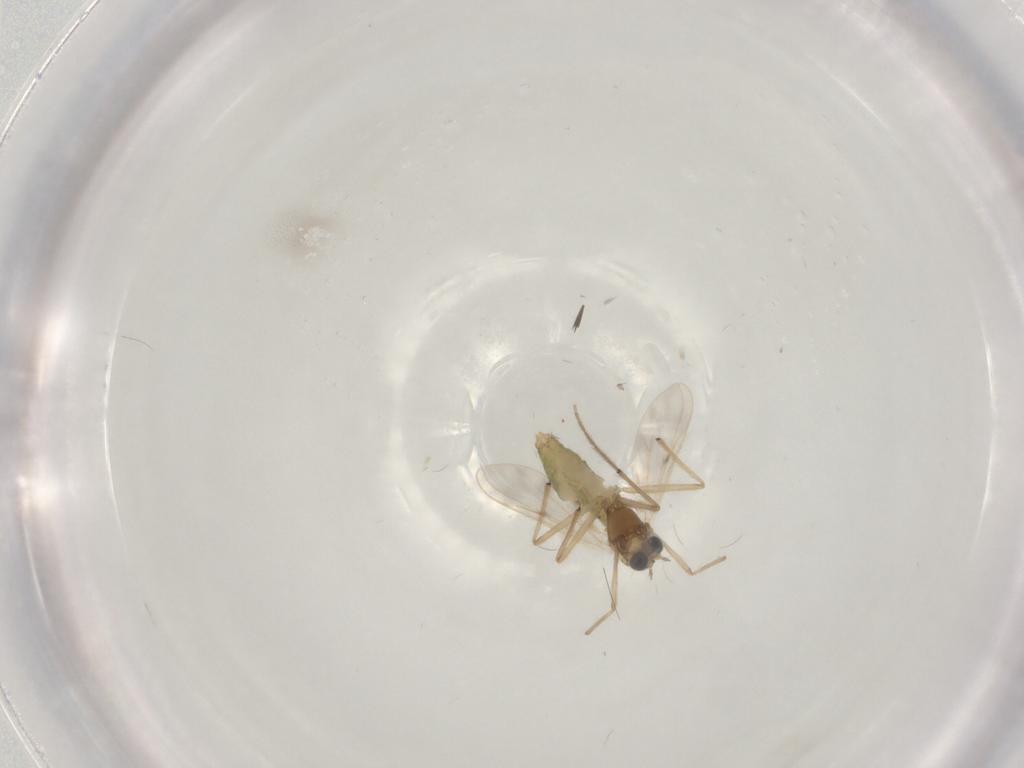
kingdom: Animalia
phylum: Arthropoda
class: Insecta
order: Diptera
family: Chironomidae
